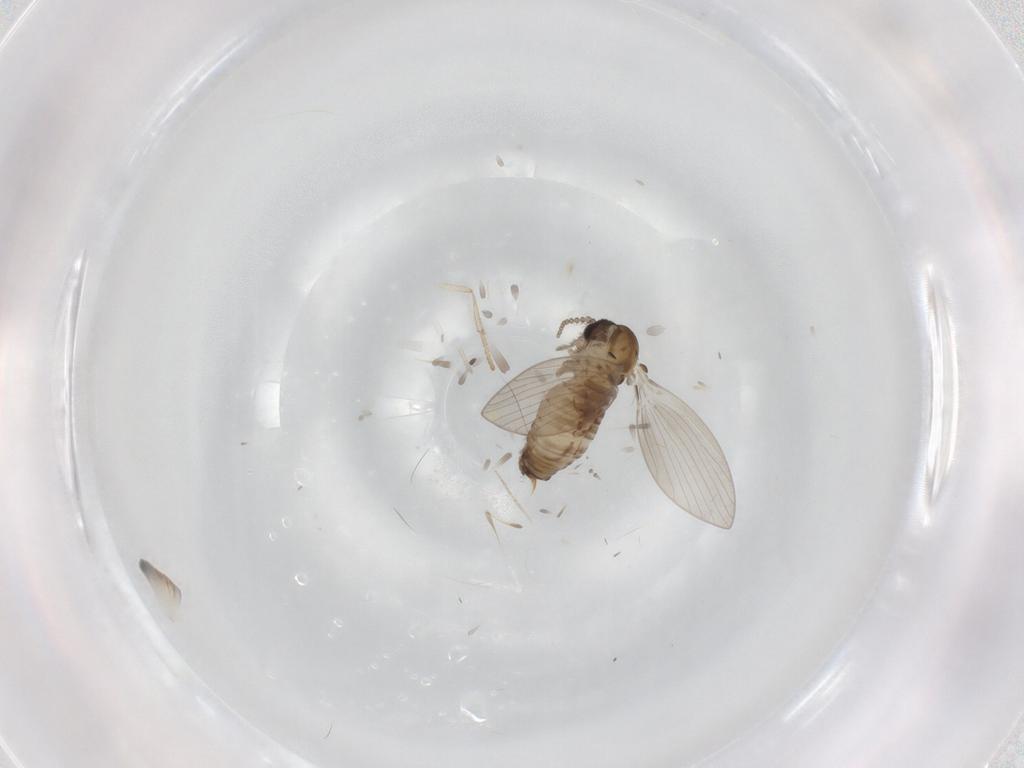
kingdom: Animalia
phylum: Arthropoda
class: Insecta
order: Diptera
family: Psychodidae
